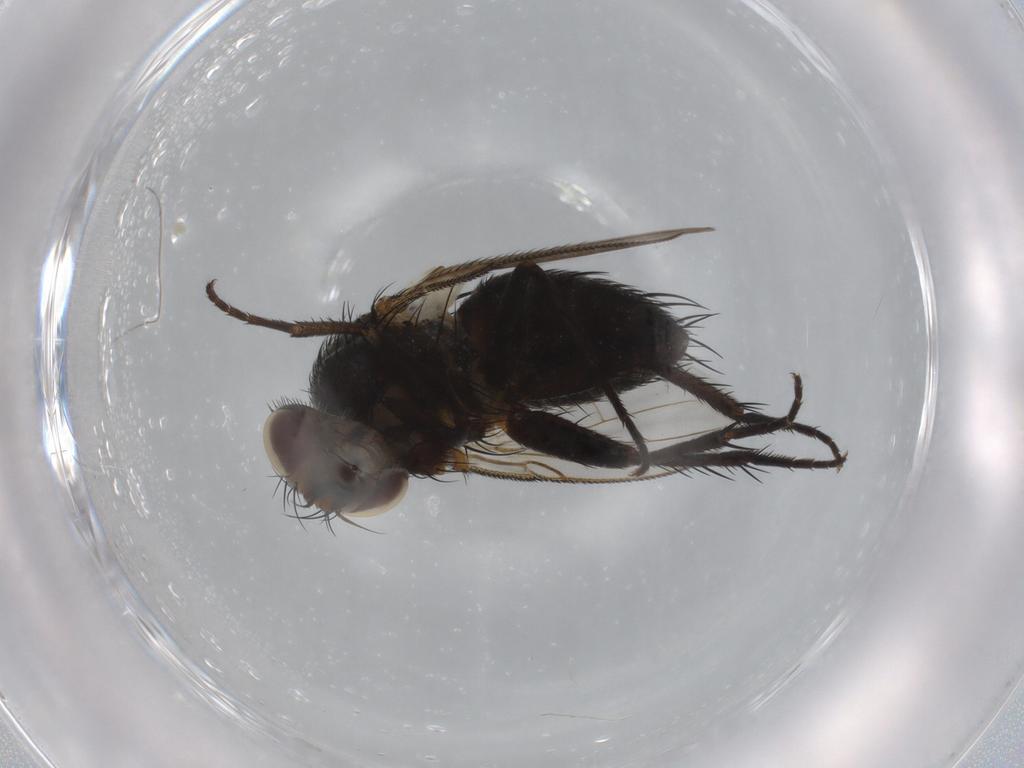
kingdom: Animalia
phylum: Arthropoda
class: Insecta
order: Diptera
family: Tachinidae
